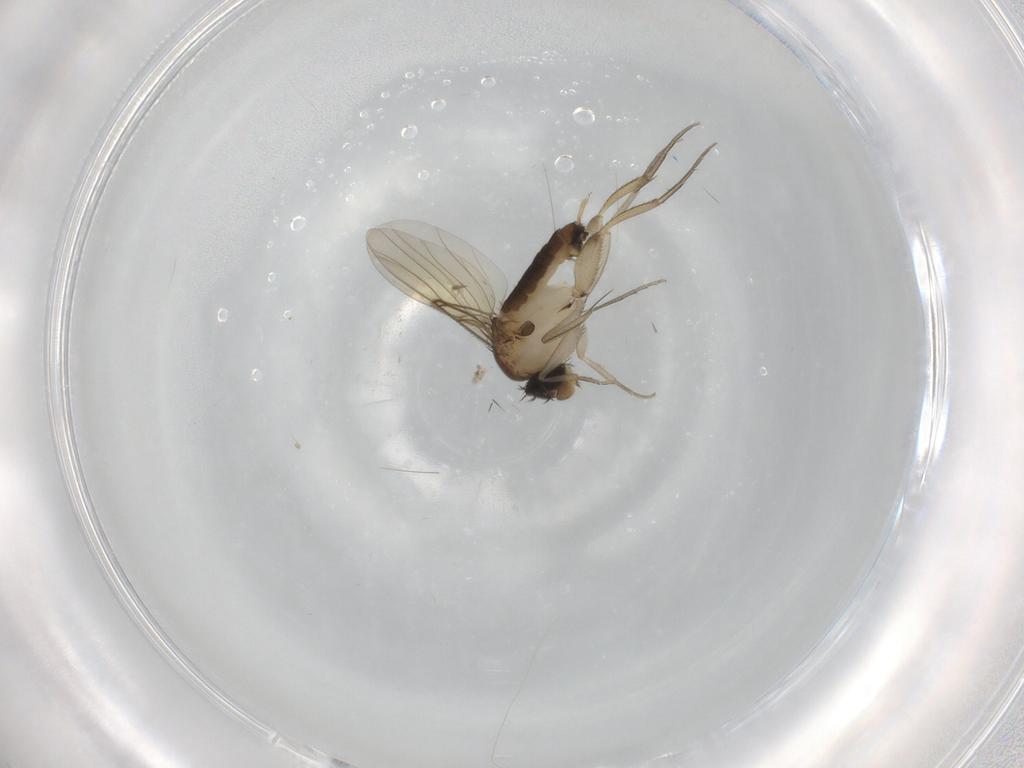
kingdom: Animalia
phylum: Arthropoda
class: Insecta
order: Diptera
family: Phoridae
